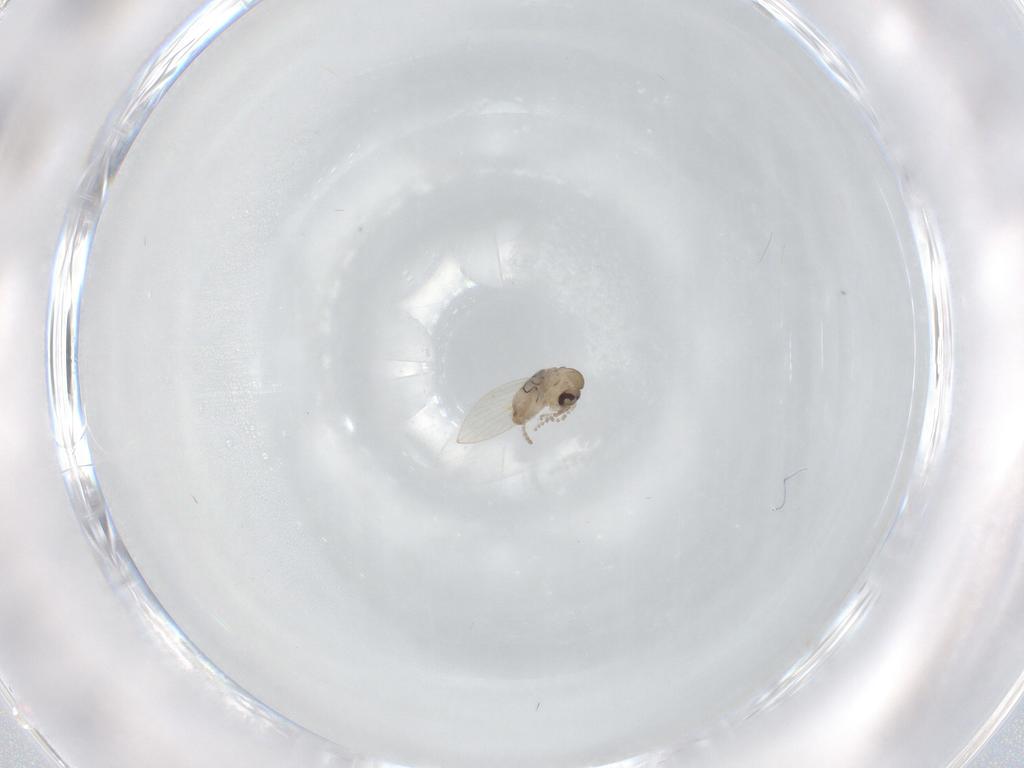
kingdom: Animalia
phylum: Arthropoda
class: Insecta
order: Diptera
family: Psychodidae
